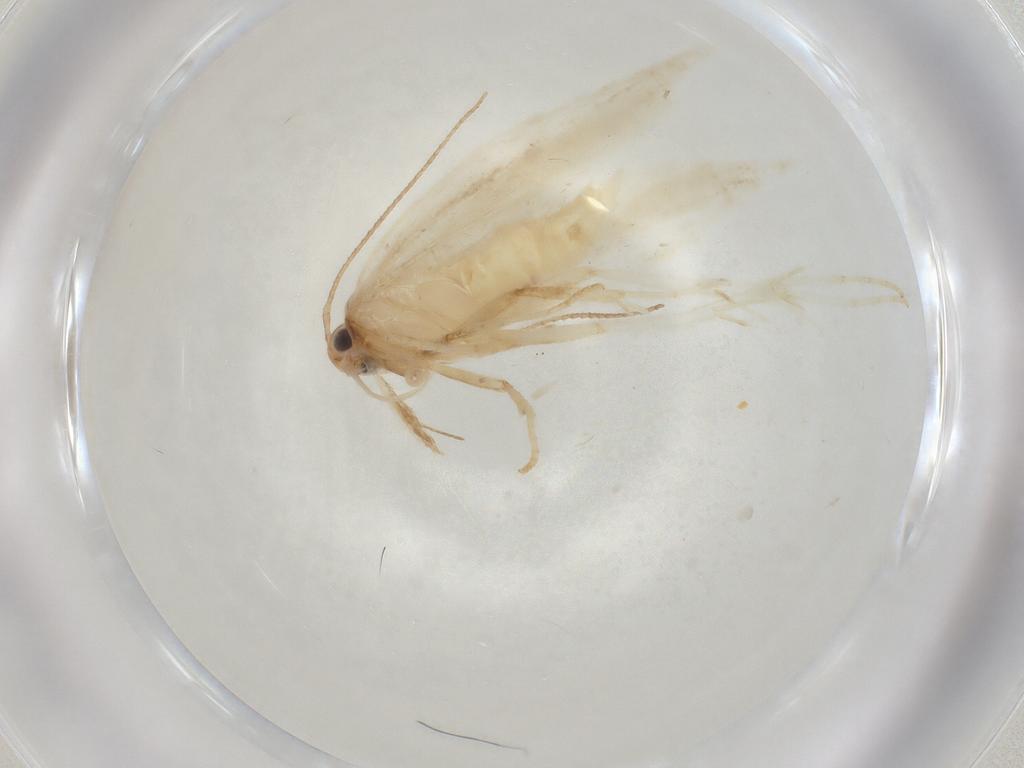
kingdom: Animalia
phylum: Arthropoda
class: Insecta
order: Lepidoptera
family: Gelechiidae
